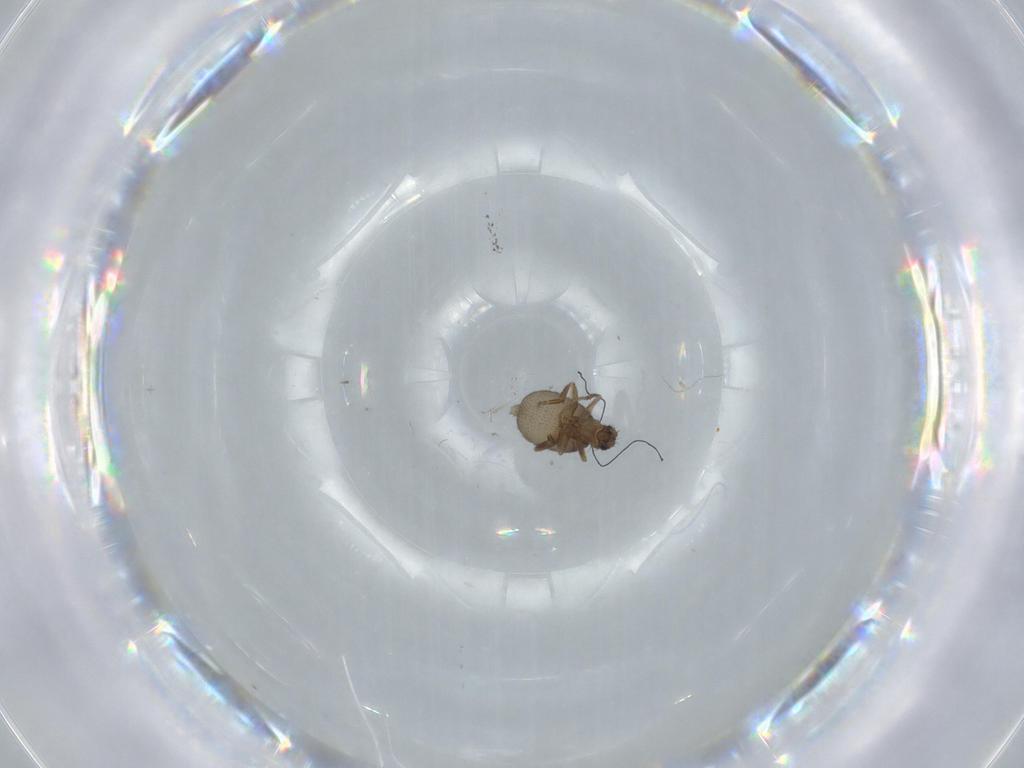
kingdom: Animalia
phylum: Arthropoda
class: Insecta
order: Diptera
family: Phoridae
